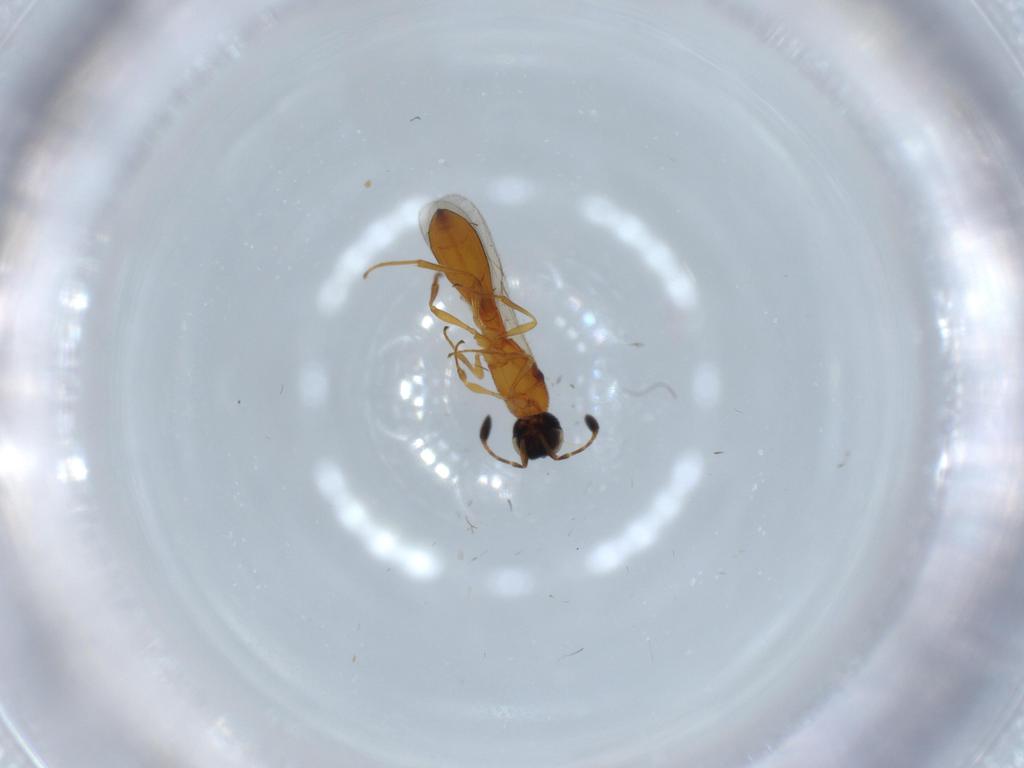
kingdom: Animalia
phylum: Arthropoda
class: Insecta
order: Hymenoptera
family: Scelionidae
